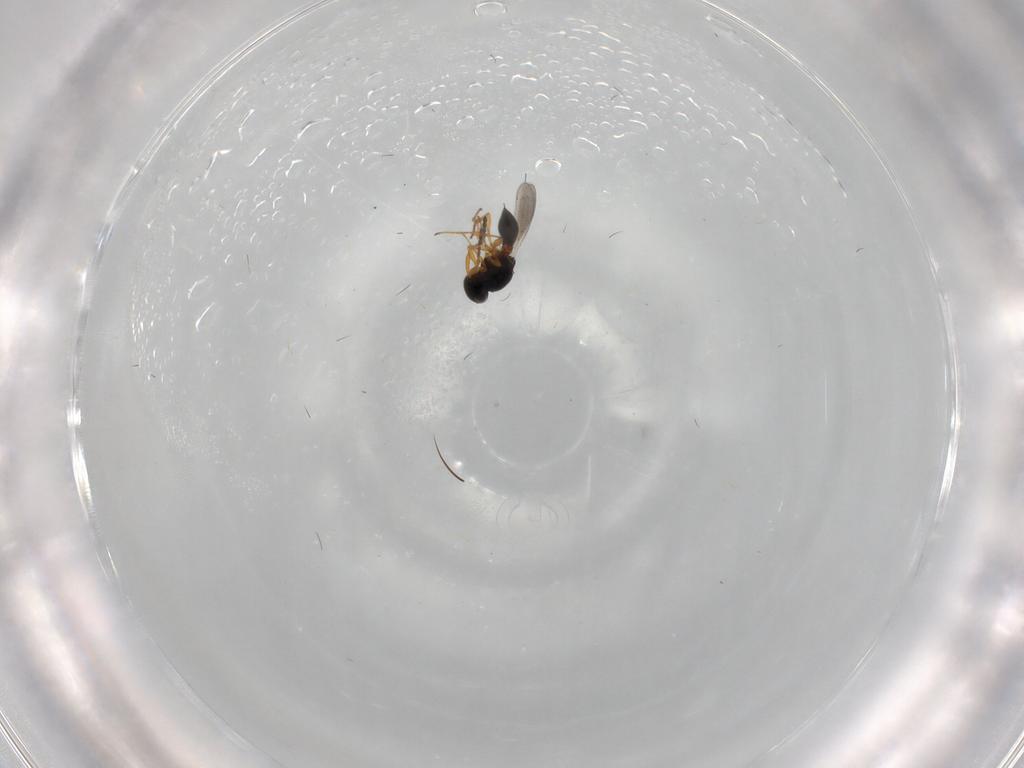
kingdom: Animalia
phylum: Arthropoda
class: Insecta
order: Hymenoptera
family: Platygastridae
